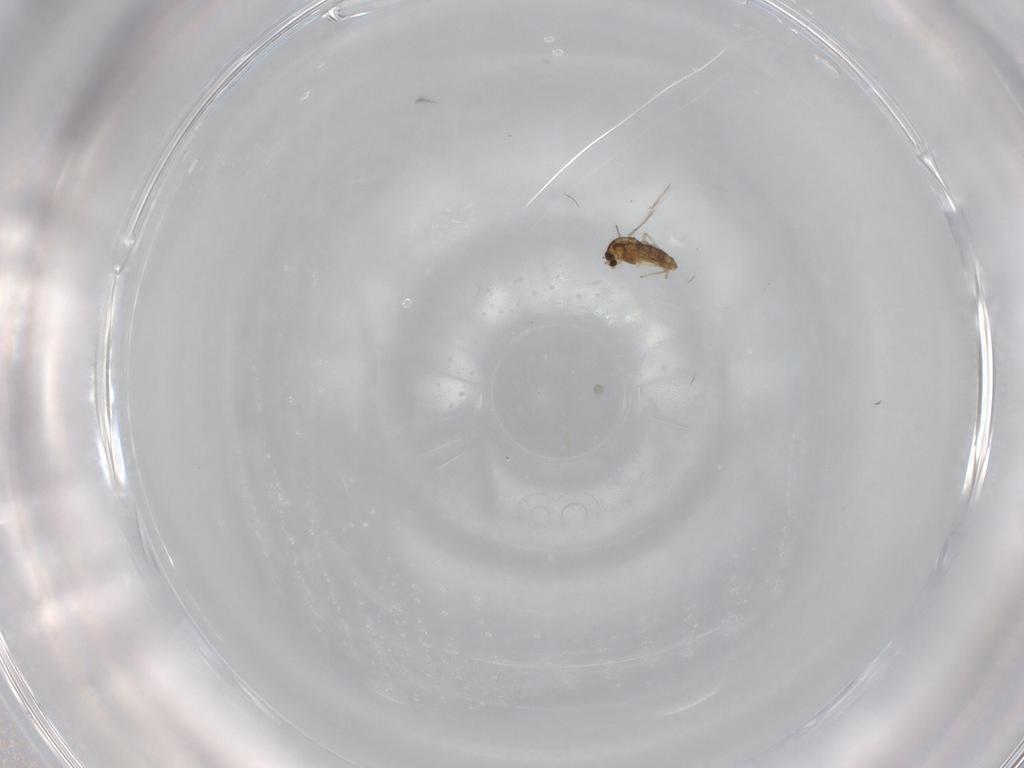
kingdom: Animalia
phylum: Arthropoda
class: Insecta
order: Diptera
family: Chironomidae
